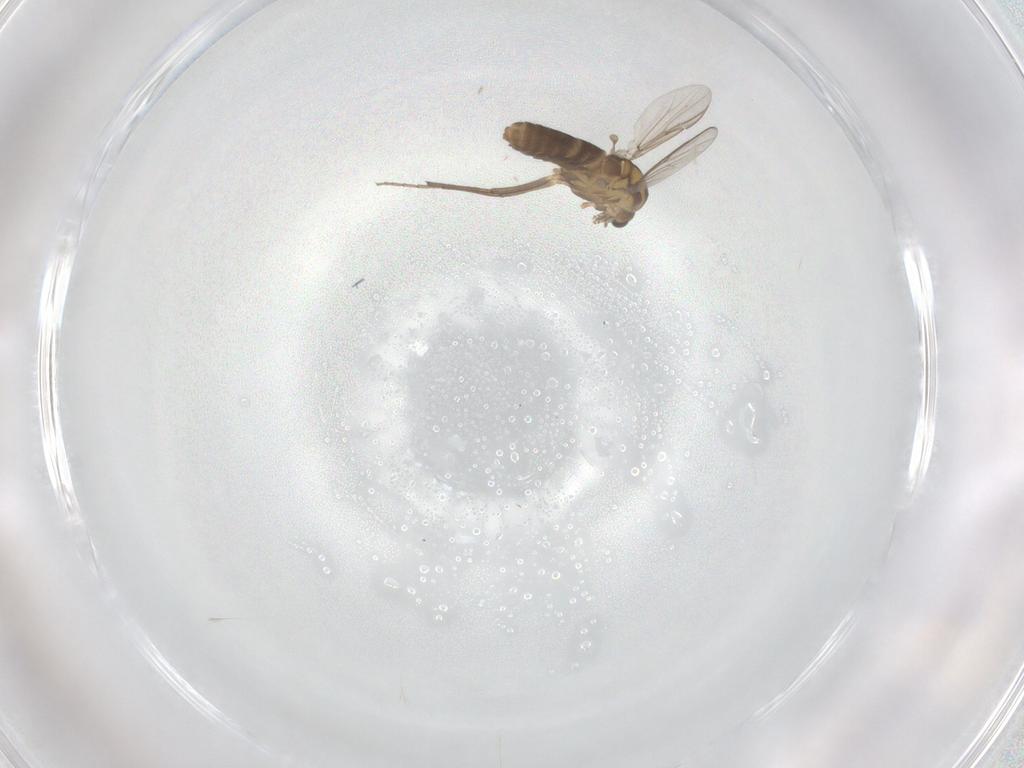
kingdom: Animalia
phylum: Arthropoda
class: Insecta
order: Diptera
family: Chironomidae
